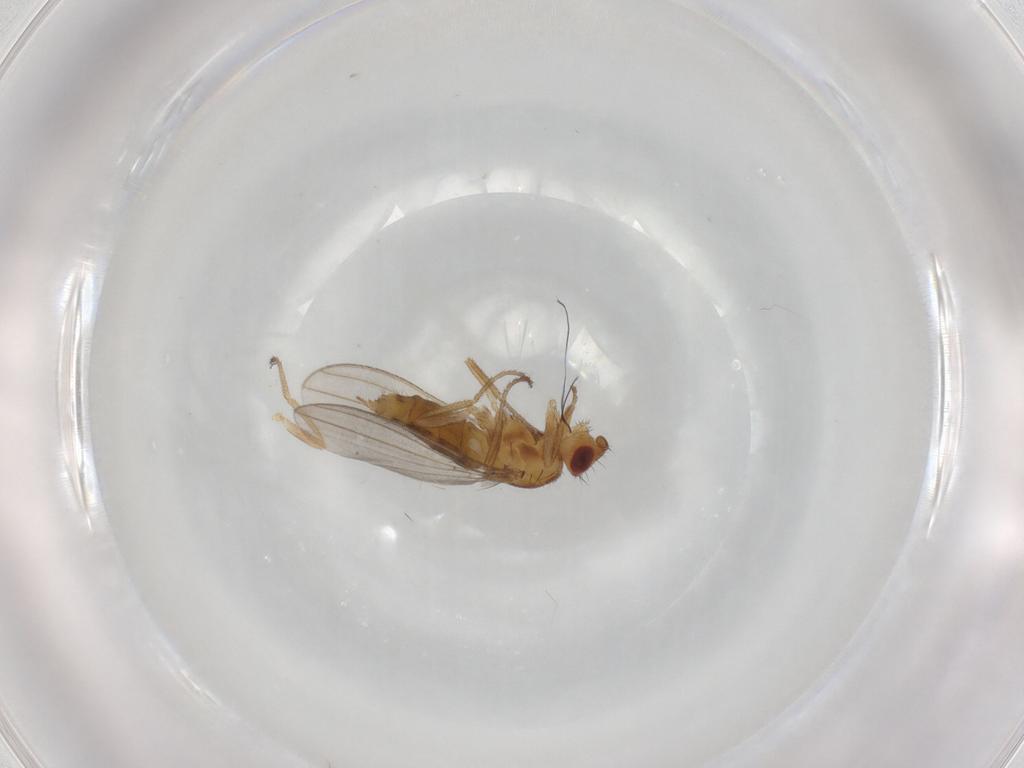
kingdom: Animalia
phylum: Arthropoda
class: Insecta
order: Diptera
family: Milichiidae
